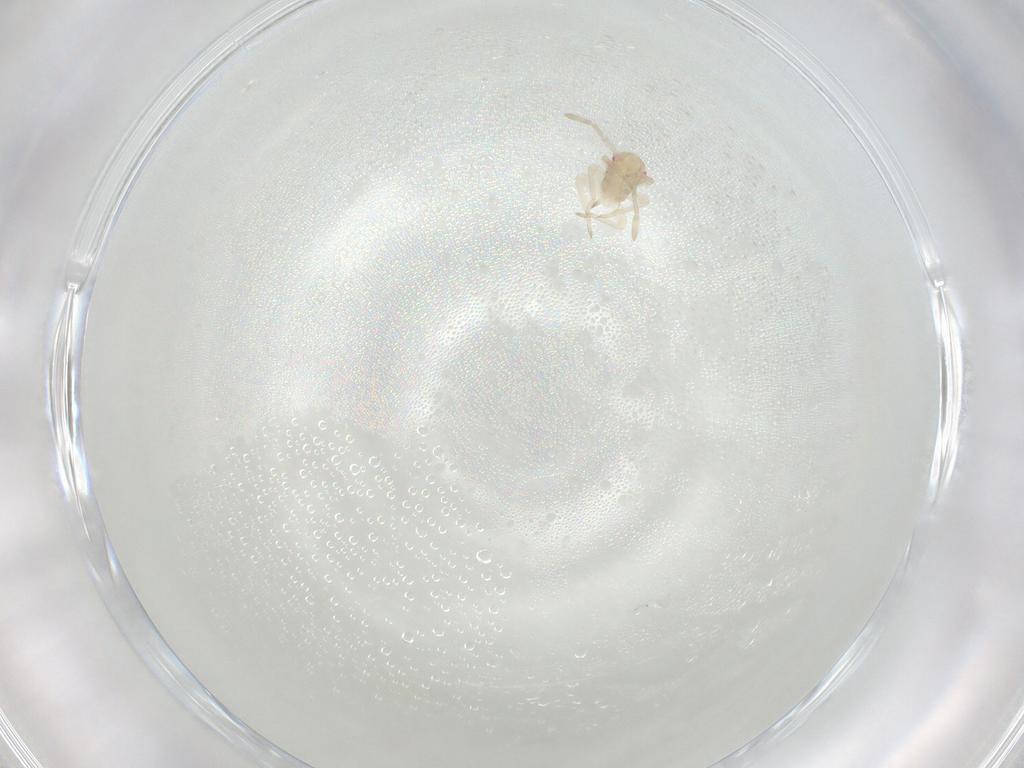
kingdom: Animalia
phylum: Arthropoda
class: Insecta
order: Hemiptera
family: Miridae
